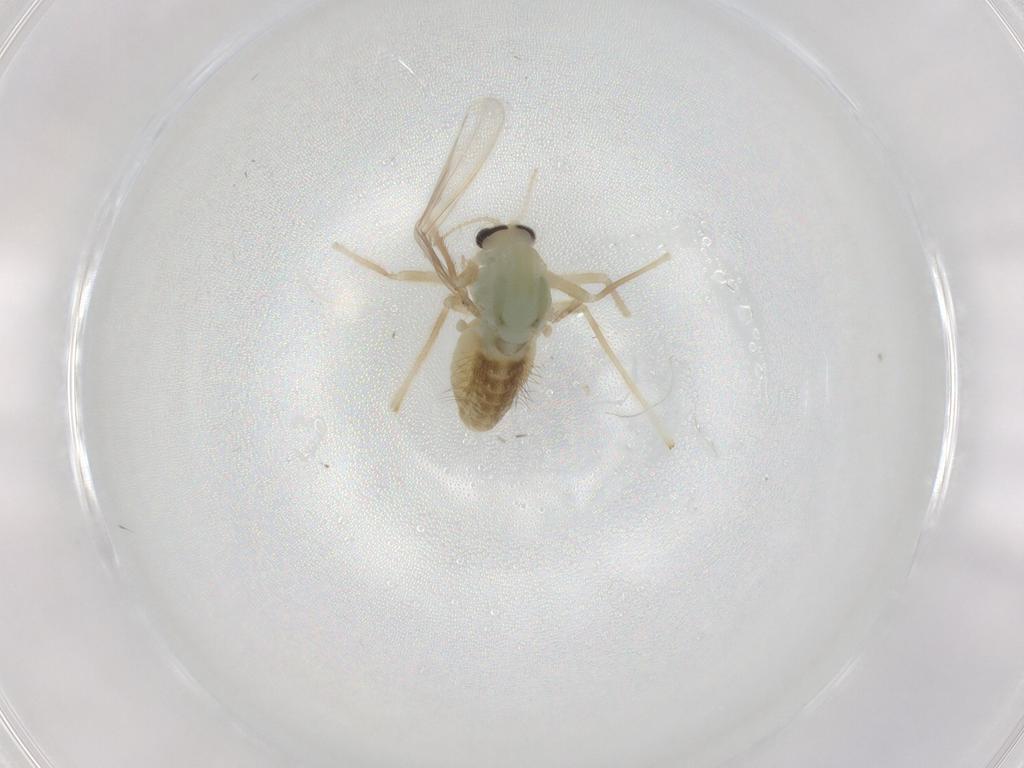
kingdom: Animalia
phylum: Arthropoda
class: Insecta
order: Diptera
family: Chironomidae
